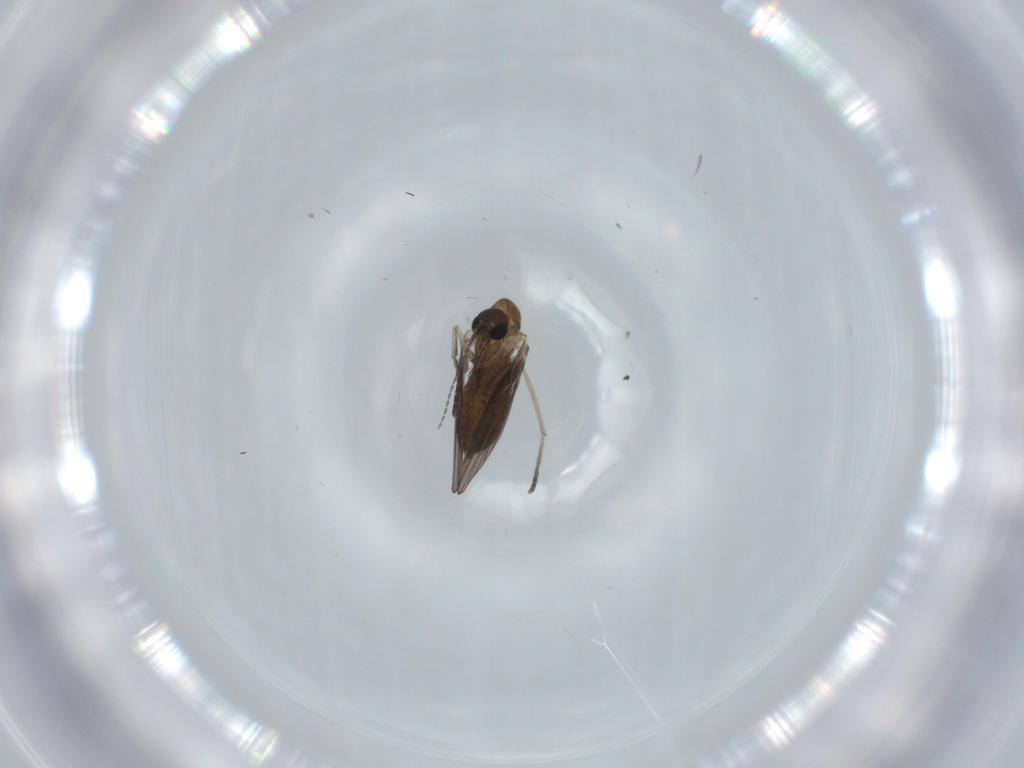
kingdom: Animalia
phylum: Arthropoda
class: Insecta
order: Diptera
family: Psychodidae
